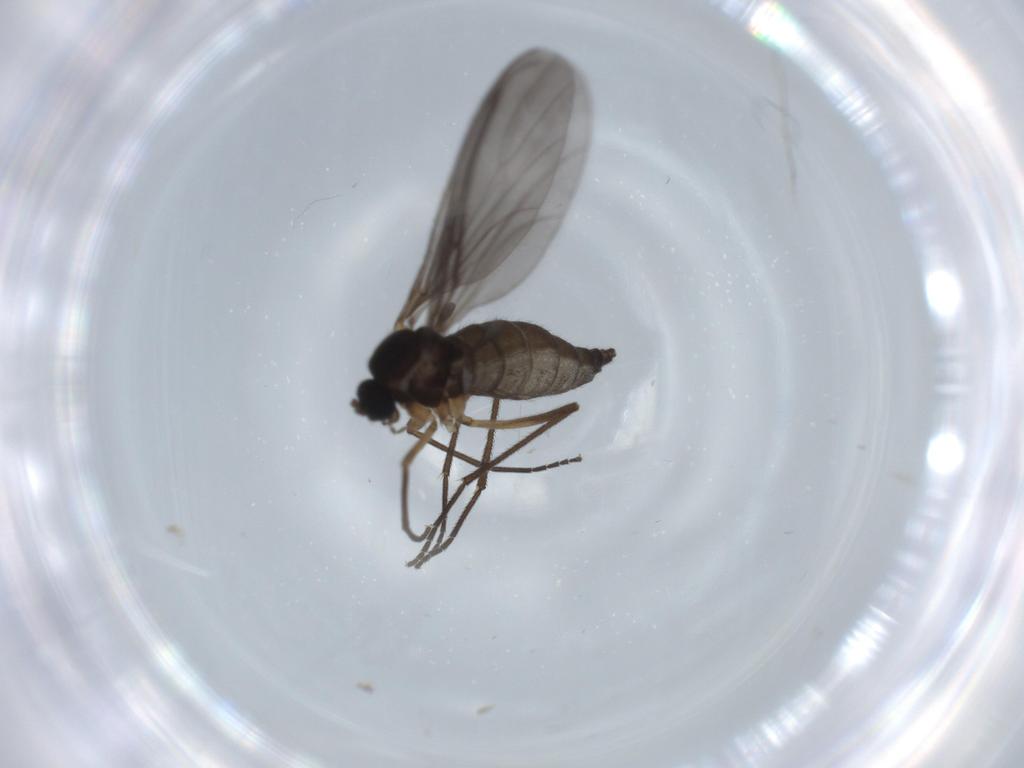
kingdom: Animalia
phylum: Arthropoda
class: Insecta
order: Diptera
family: Sciaridae
